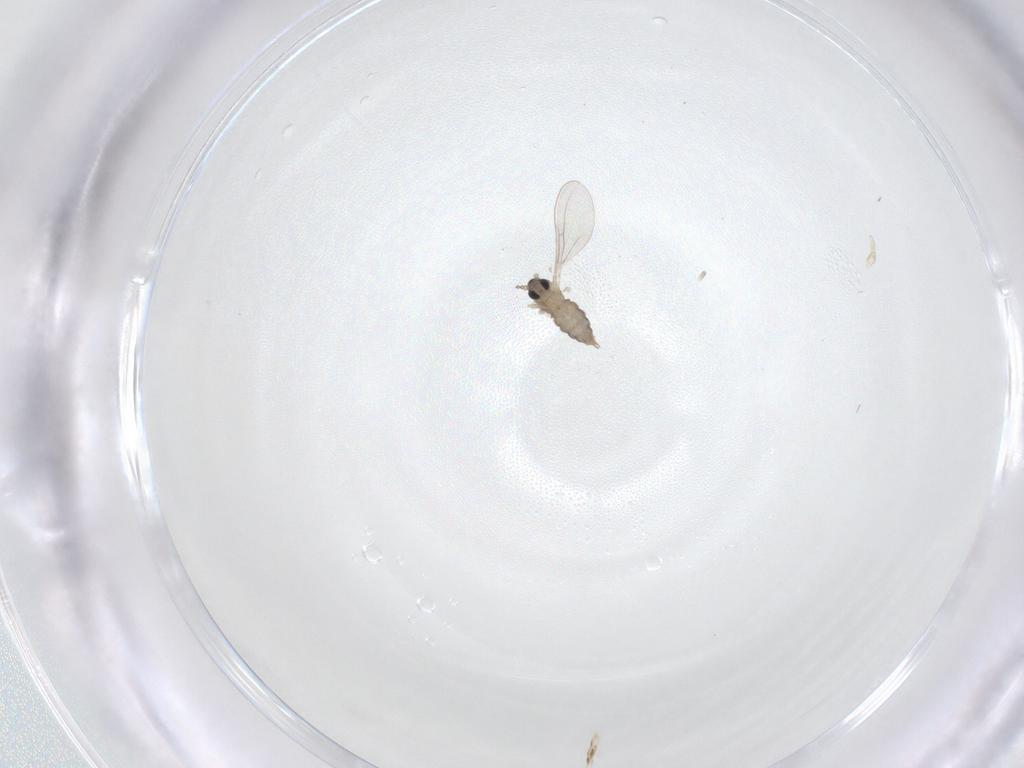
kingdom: Animalia
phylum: Arthropoda
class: Insecta
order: Diptera
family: Cecidomyiidae
